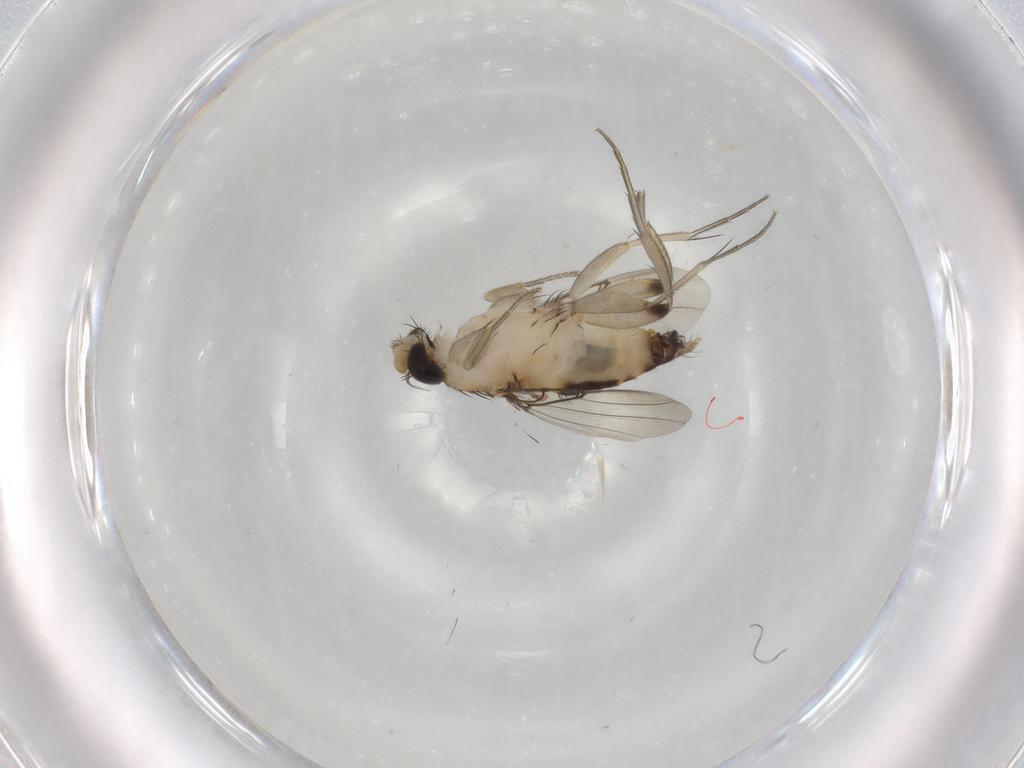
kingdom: Animalia
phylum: Arthropoda
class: Insecta
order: Diptera
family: Phoridae
